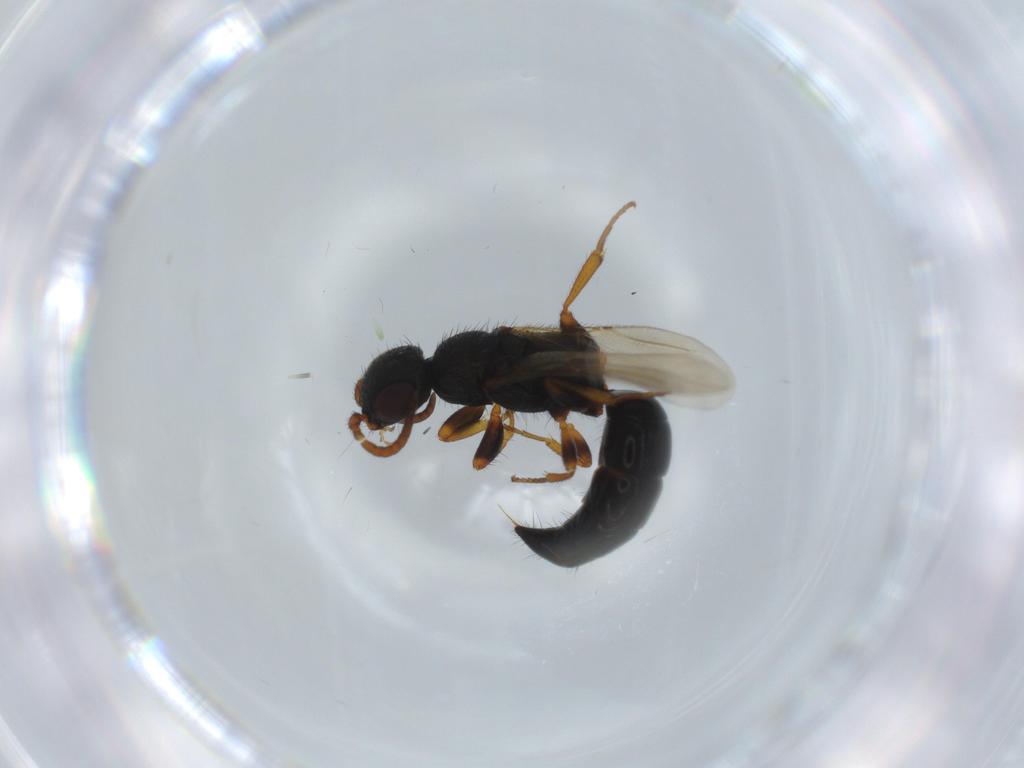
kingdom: Animalia
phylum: Arthropoda
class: Insecta
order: Hymenoptera
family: Bethylidae
